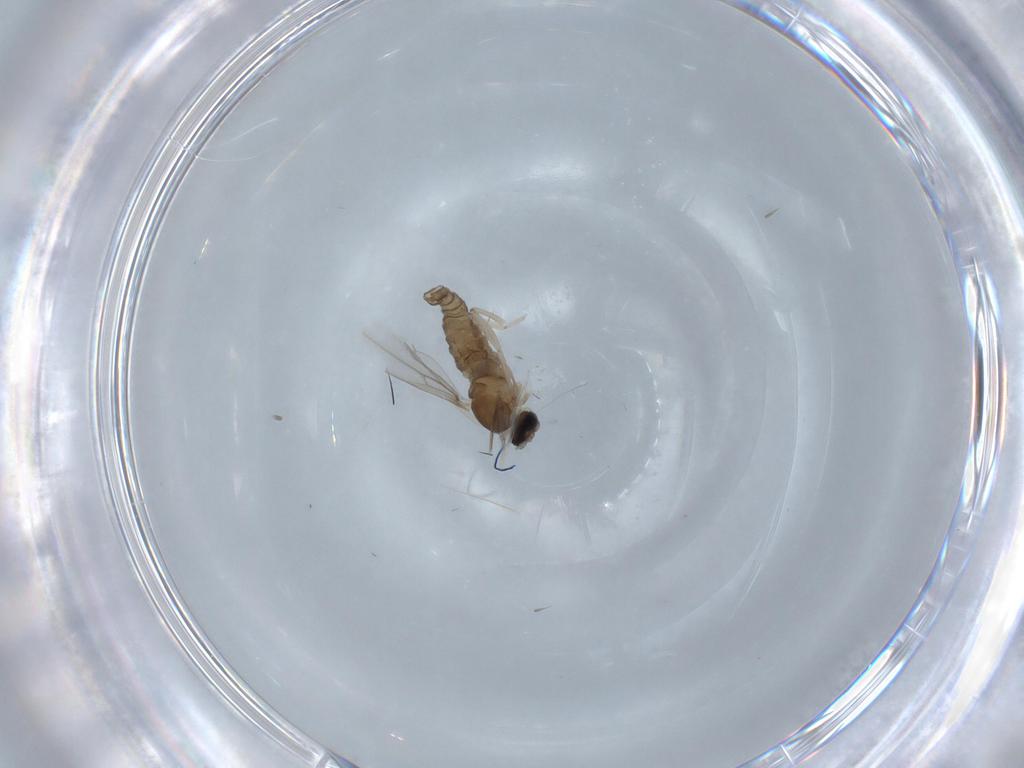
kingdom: Animalia
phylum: Arthropoda
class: Insecta
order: Diptera
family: Cecidomyiidae
